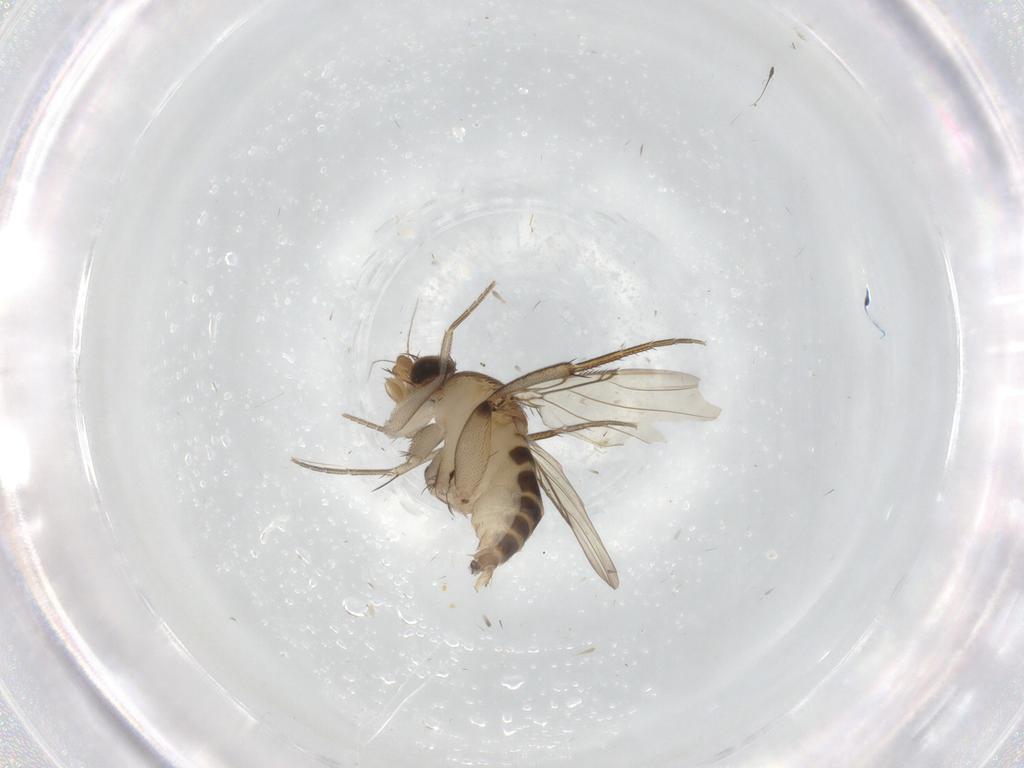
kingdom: Animalia
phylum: Arthropoda
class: Insecta
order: Diptera
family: Phoridae
